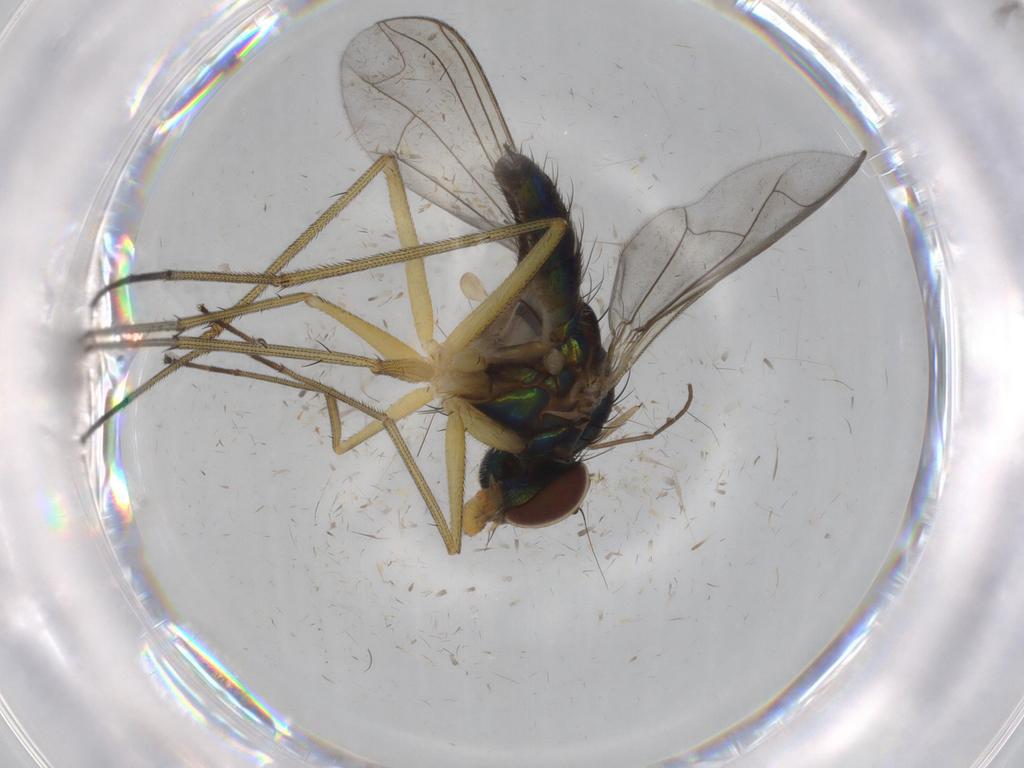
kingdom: Animalia
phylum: Arthropoda
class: Insecta
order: Diptera
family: Dolichopodidae
